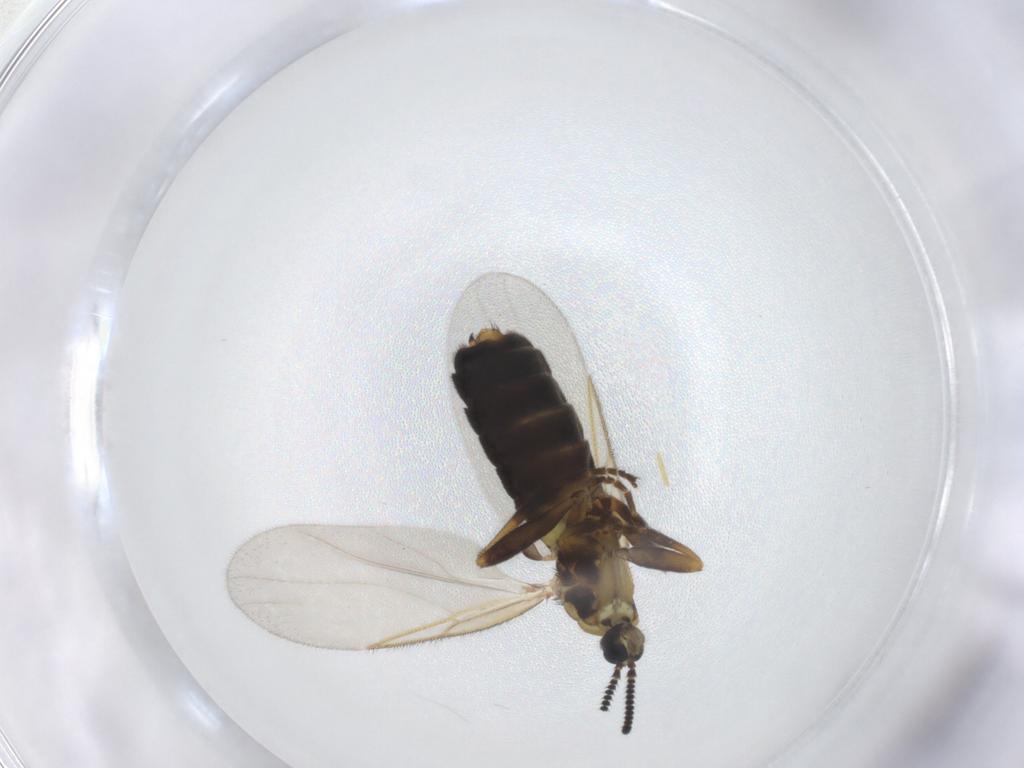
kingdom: Animalia
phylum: Arthropoda
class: Insecta
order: Diptera
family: Scatopsidae
